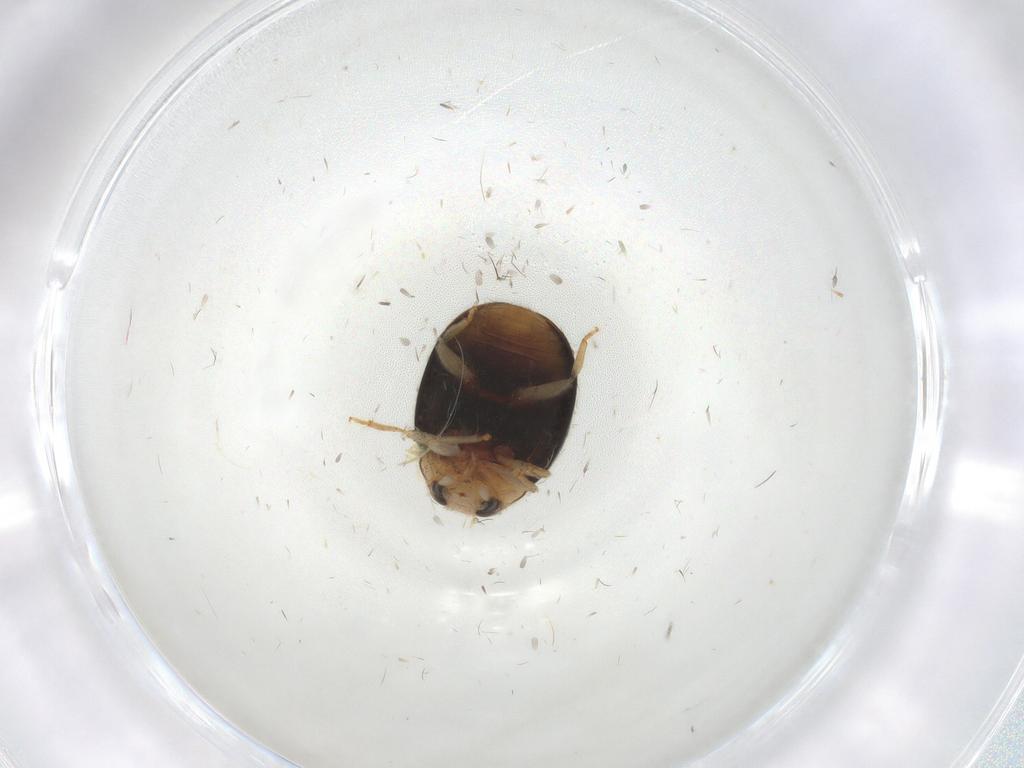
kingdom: Animalia
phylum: Arthropoda
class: Insecta
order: Coleoptera
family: Coccinellidae
